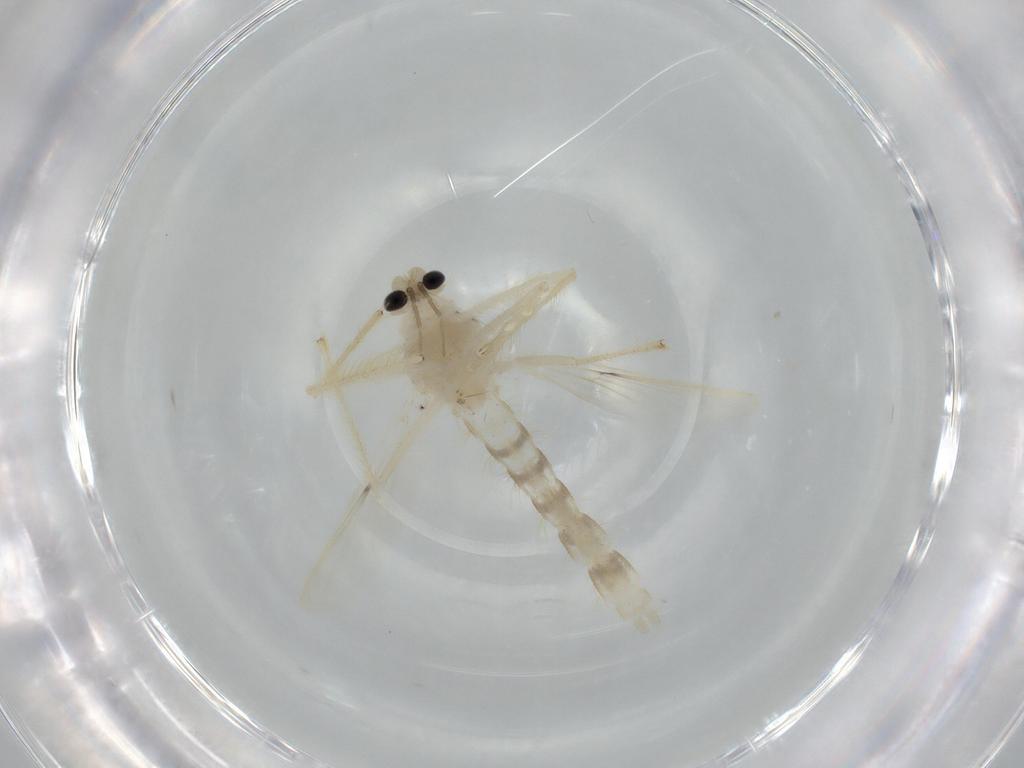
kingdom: Animalia
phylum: Arthropoda
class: Insecta
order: Diptera
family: Chironomidae
